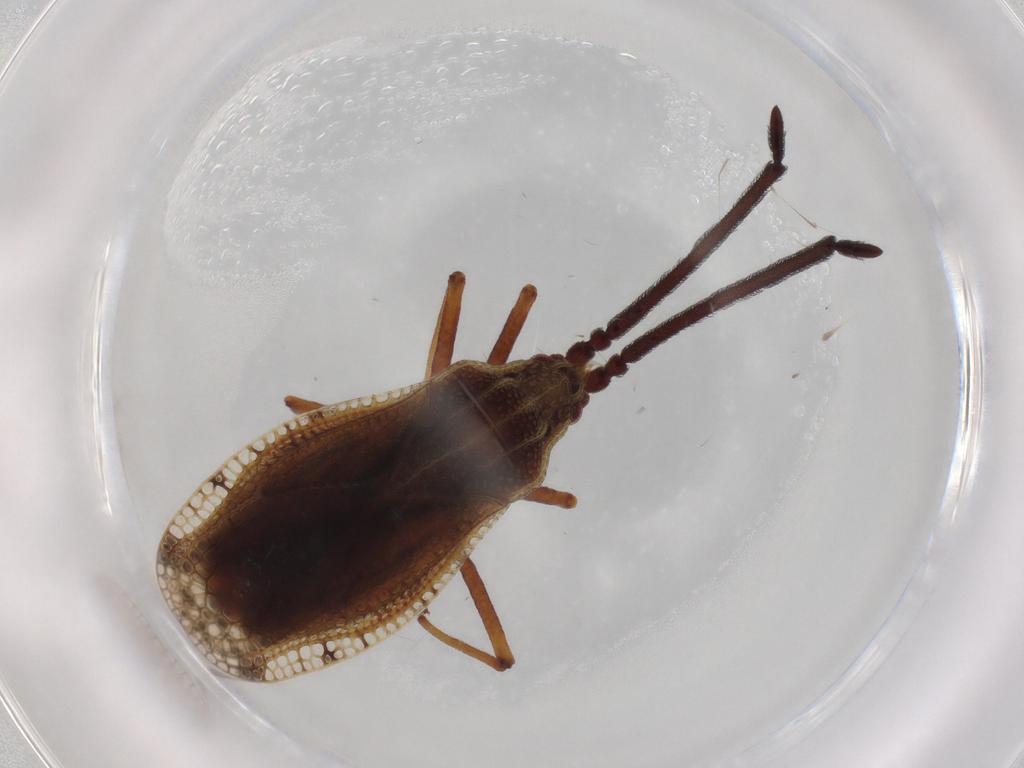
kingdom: Animalia
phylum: Arthropoda
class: Insecta
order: Hemiptera
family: Tingidae
